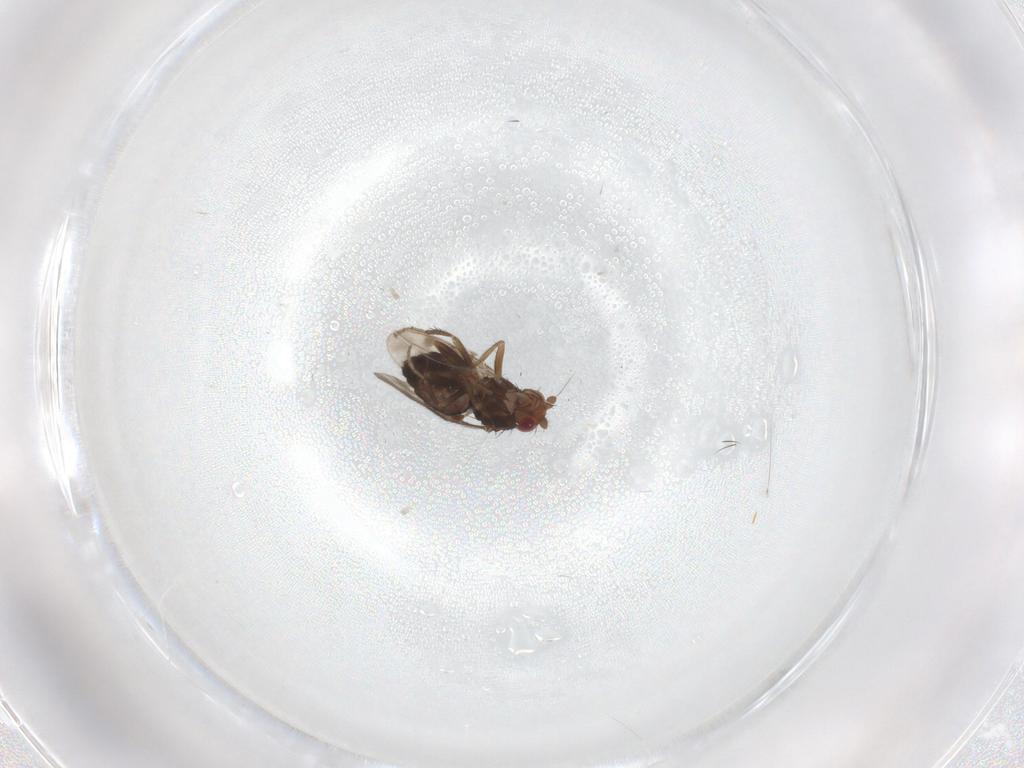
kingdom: Animalia
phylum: Arthropoda
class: Insecta
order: Diptera
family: Sphaeroceridae
